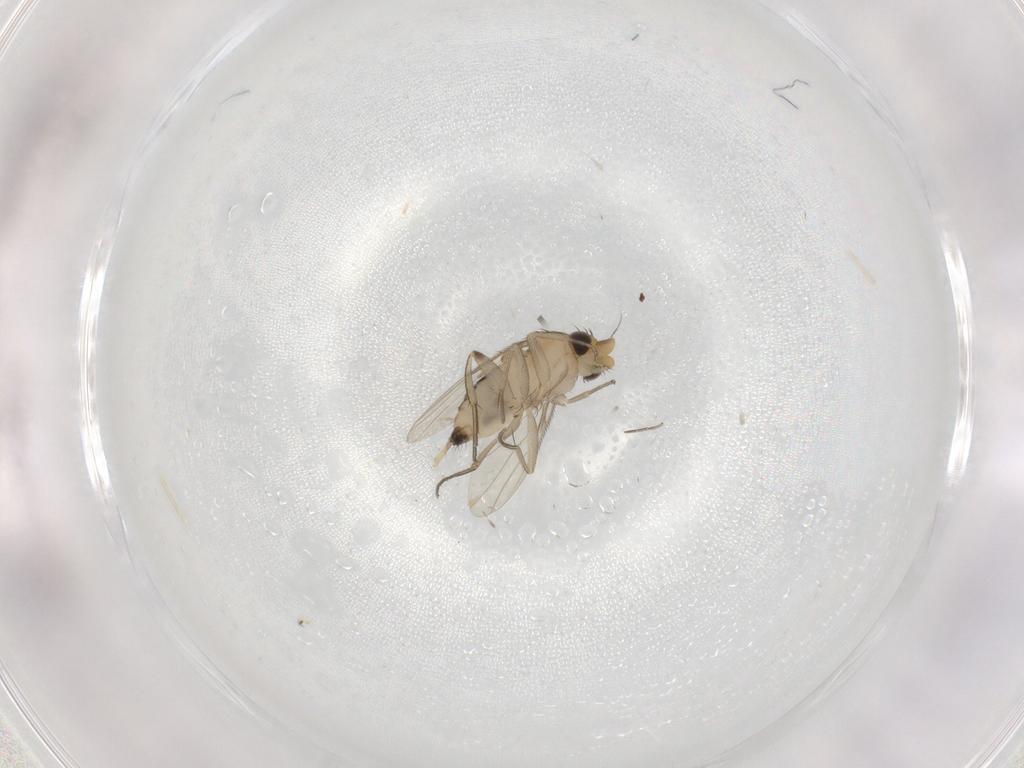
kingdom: Animalia
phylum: Arthropoda
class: Insecta
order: Diptera
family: Phoridae
